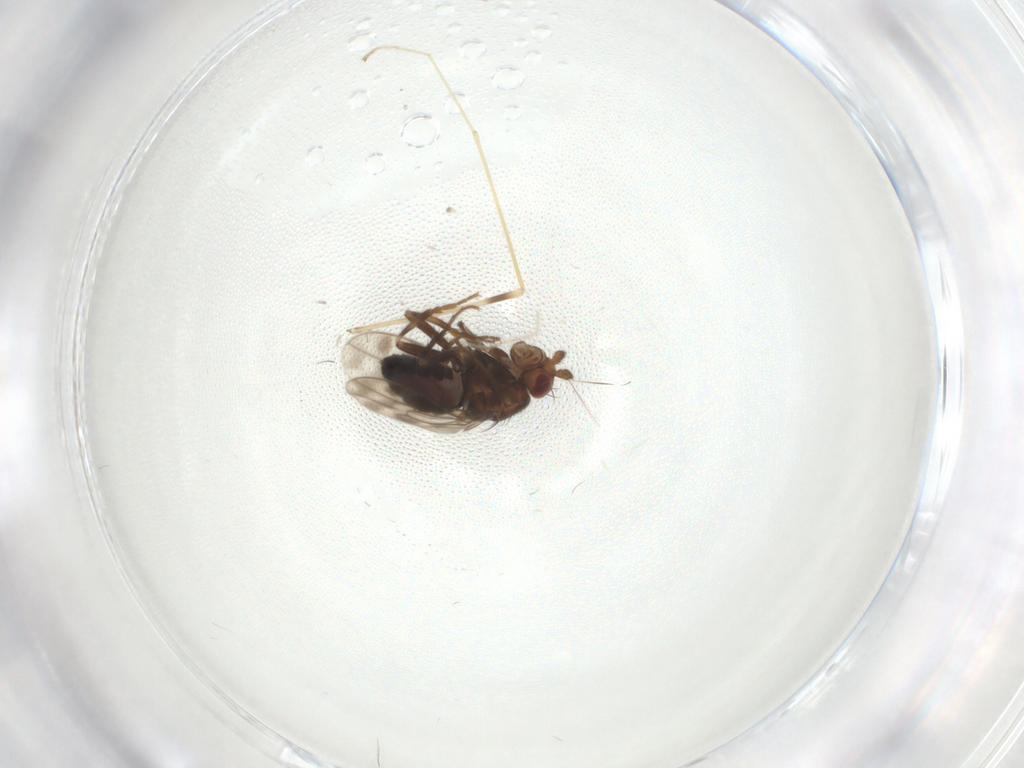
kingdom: Animalia
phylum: Arthropoda
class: Insecta
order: Diptera
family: Sphaeroceridae
